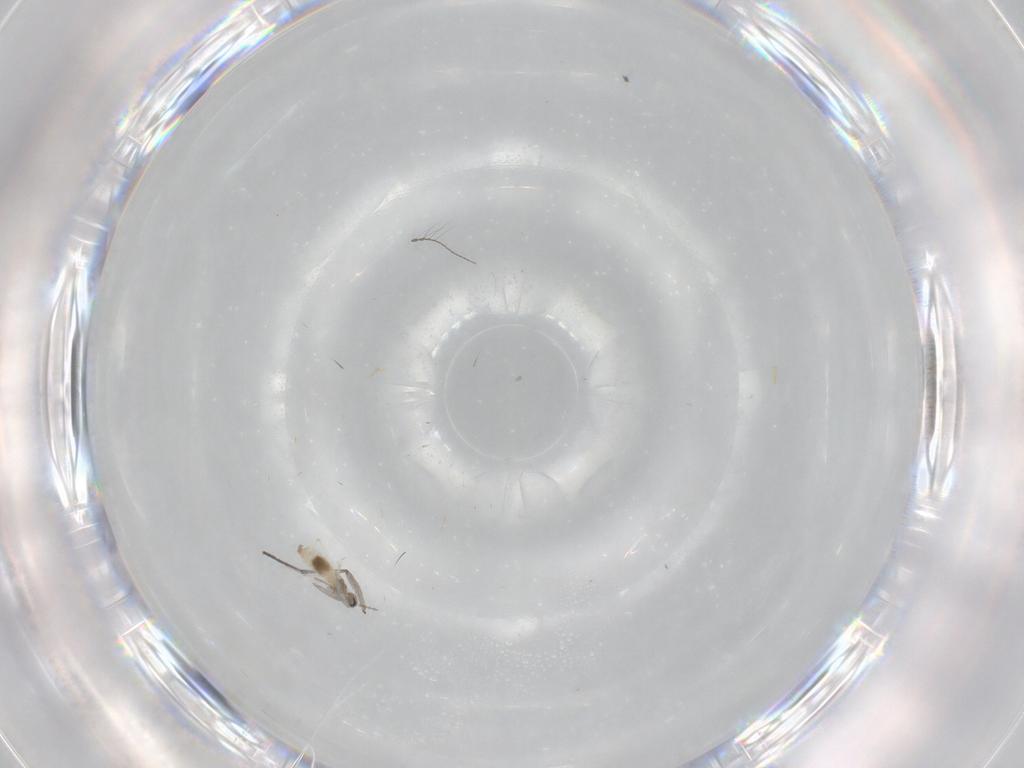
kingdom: Animalia
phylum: Arthropoda
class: Insecta
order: Diptera
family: Cecidomyiidae
